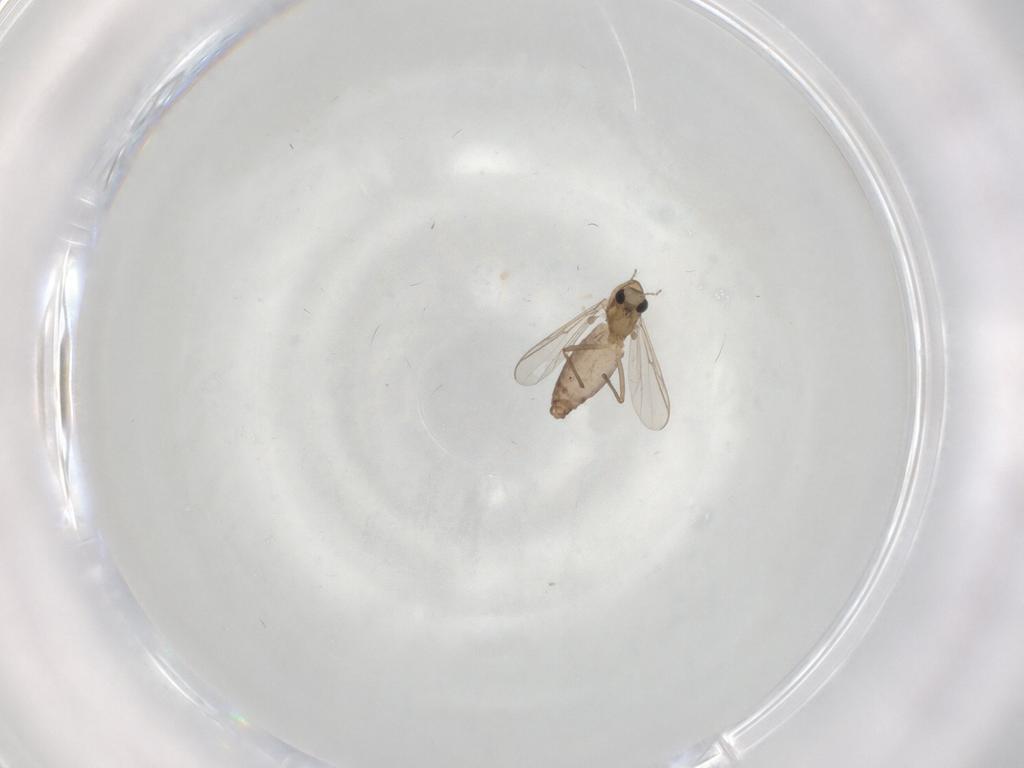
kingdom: Animalia
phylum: Arthropoda
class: Insecta
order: Diptera
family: Chironomidae
